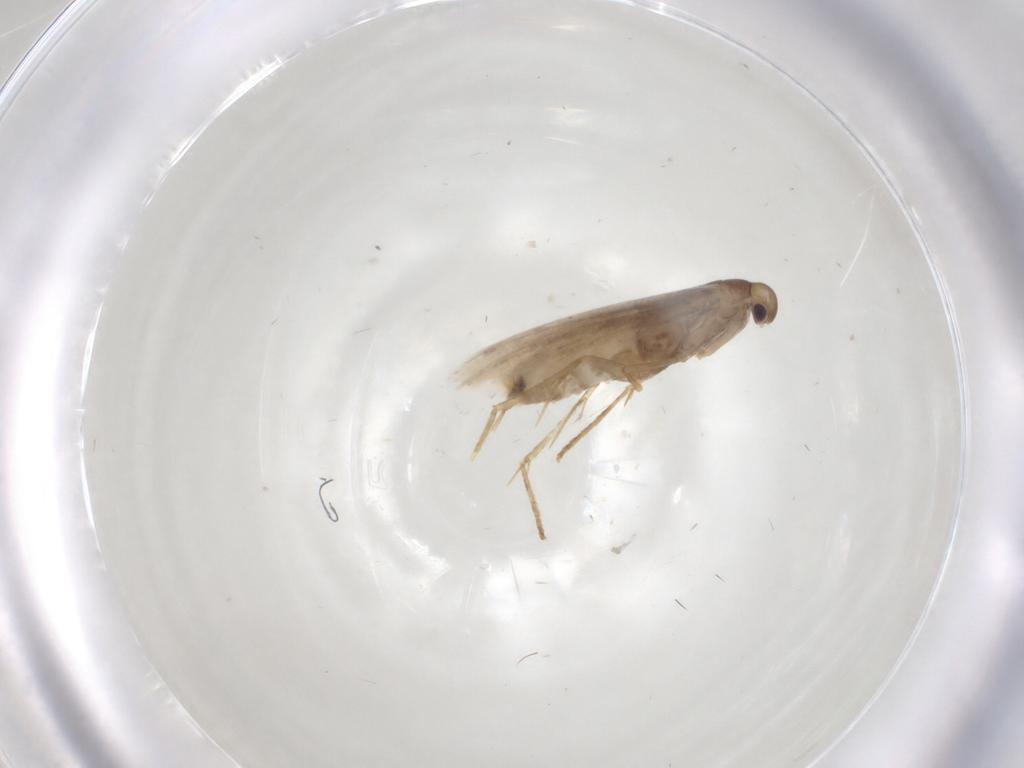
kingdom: Animalia
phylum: Arthropoda
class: Insecta
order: Lepidoptera
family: Gracillariidae
